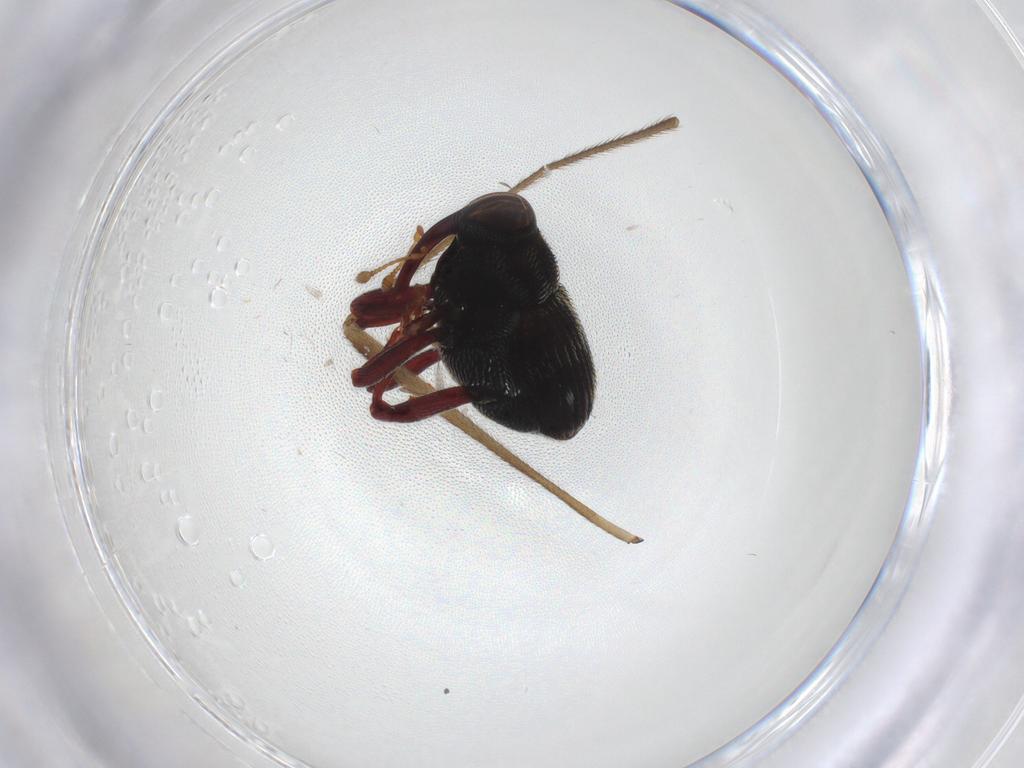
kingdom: Animalia
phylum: Arthropoda
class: Insecta
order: Coleoptera
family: Curculionidae
